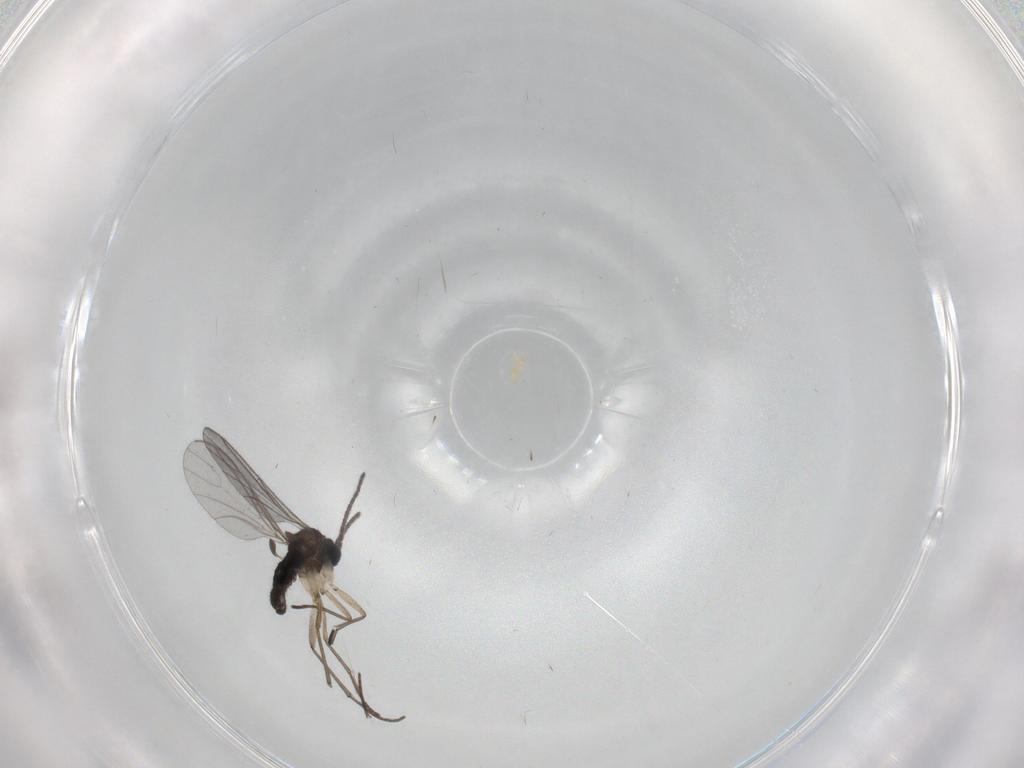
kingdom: Animalia
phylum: Arthropoda
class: Insecta
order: Diptera
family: Sciaridae
